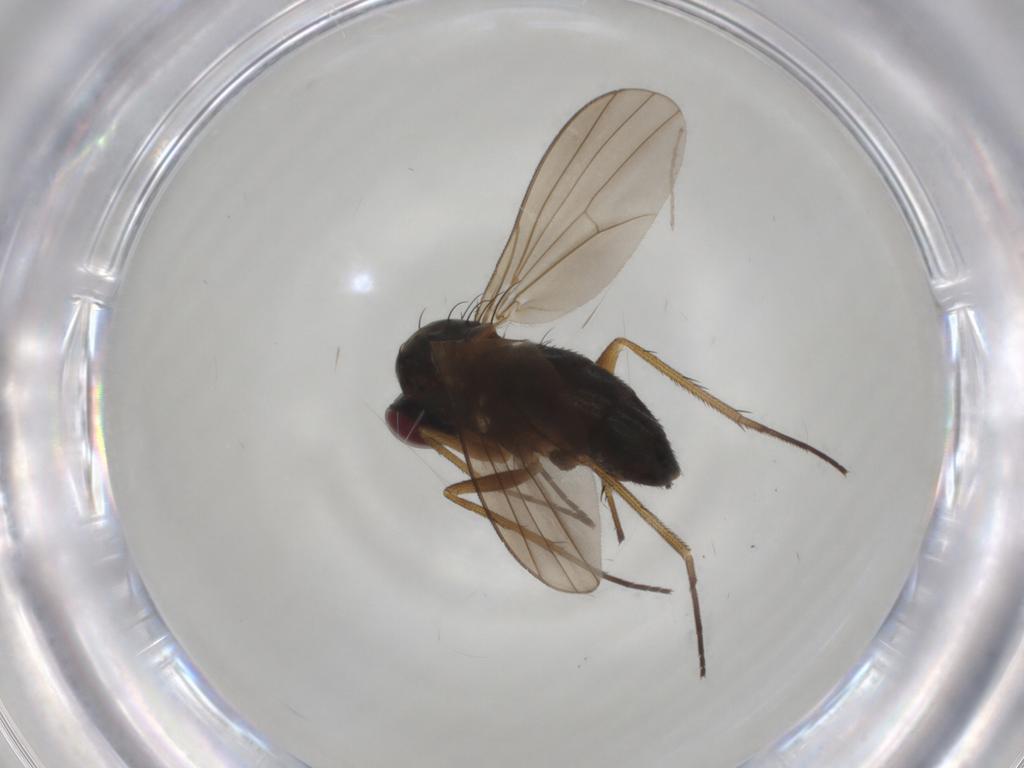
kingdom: Animalia
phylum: Arthropoda
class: Insecta
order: Diptera
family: Dolichopodidae
